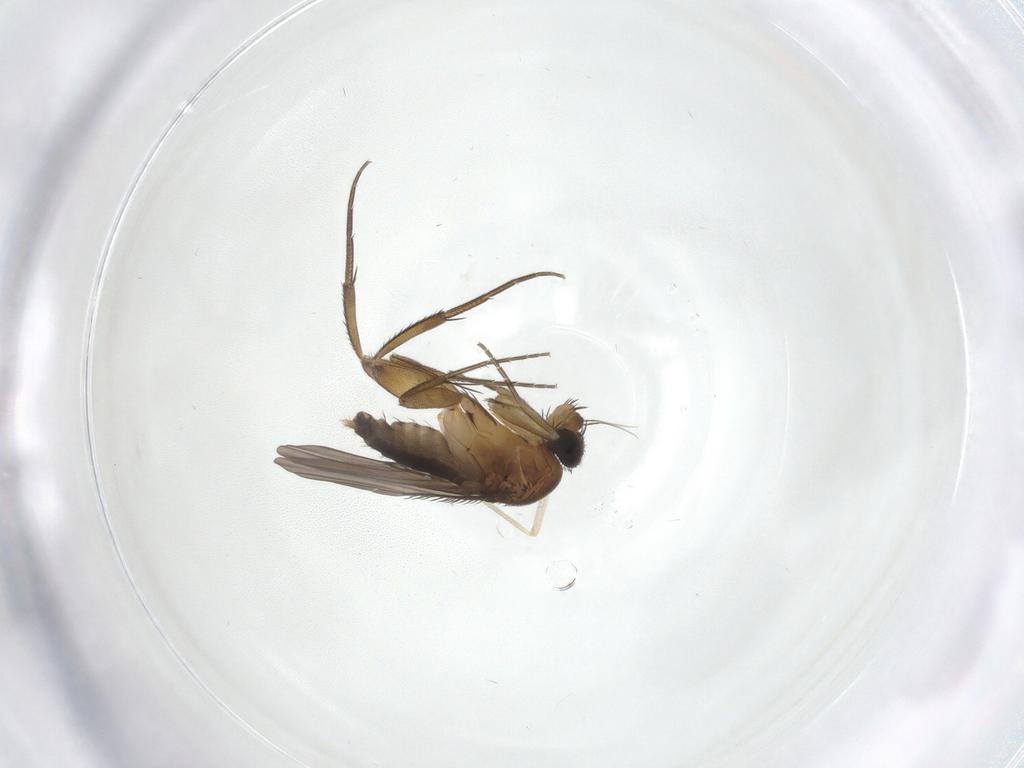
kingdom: Animalia
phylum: Arthropoda
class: Insecta
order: Diptera
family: Phoridae
